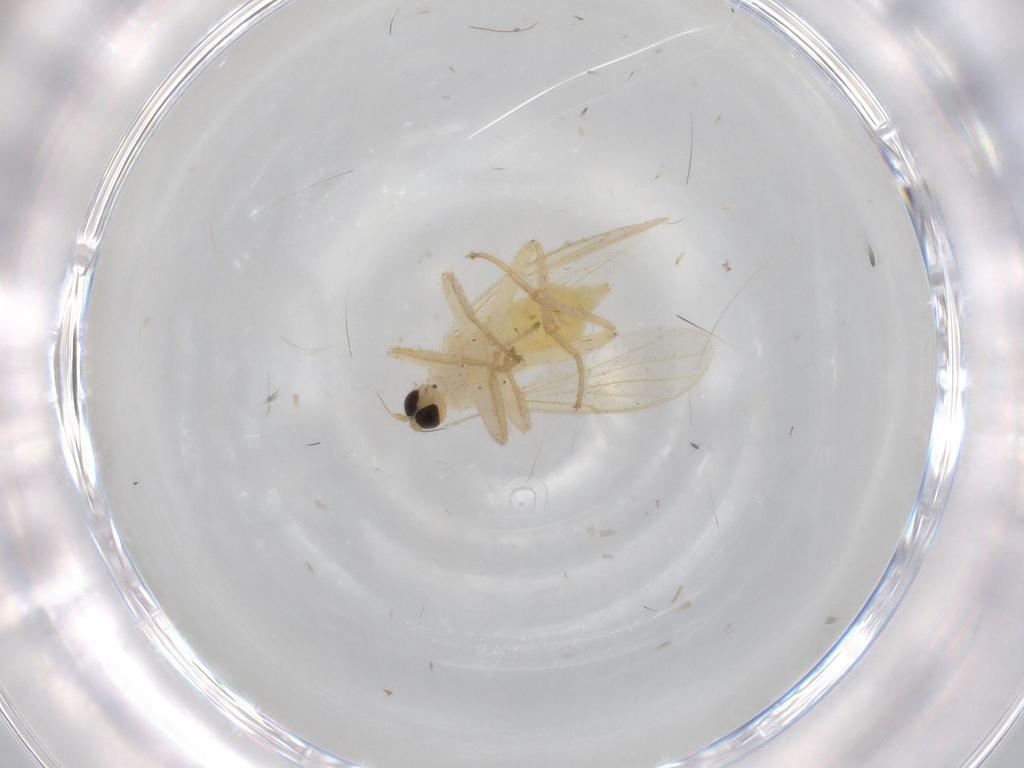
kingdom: Animalia
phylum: Arthropoda
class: Insecta
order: Diptera
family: Hybotidae
